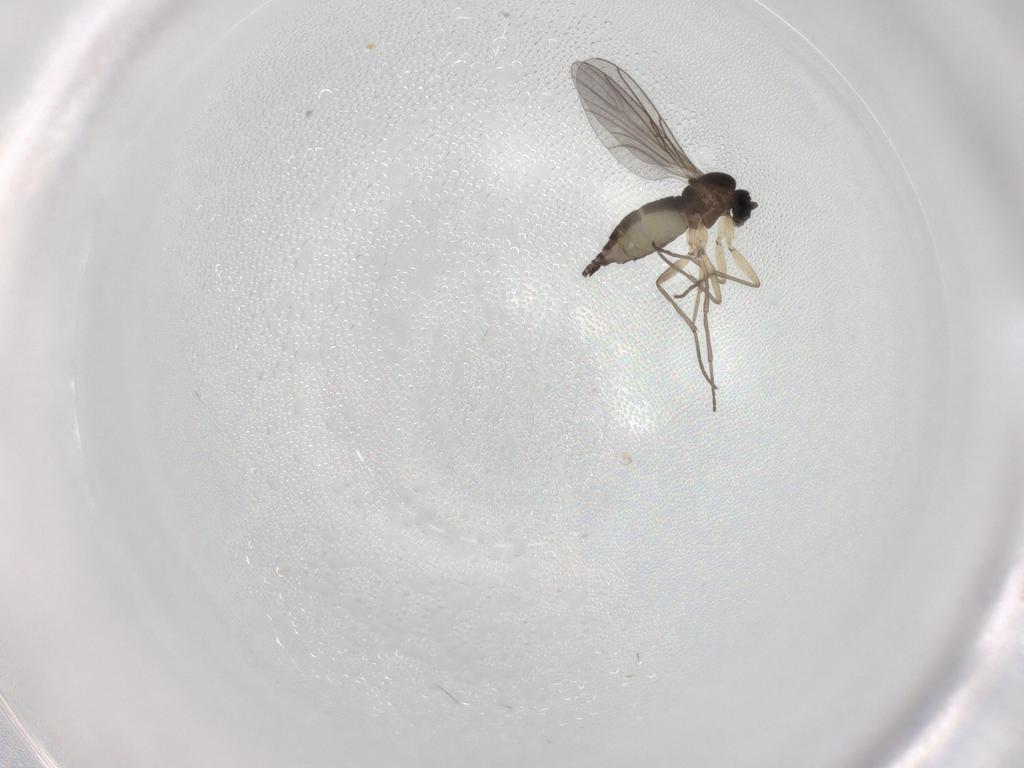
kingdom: Animalia
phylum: Arthropoda
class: Insecta
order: Diptera
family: Sciaridae
